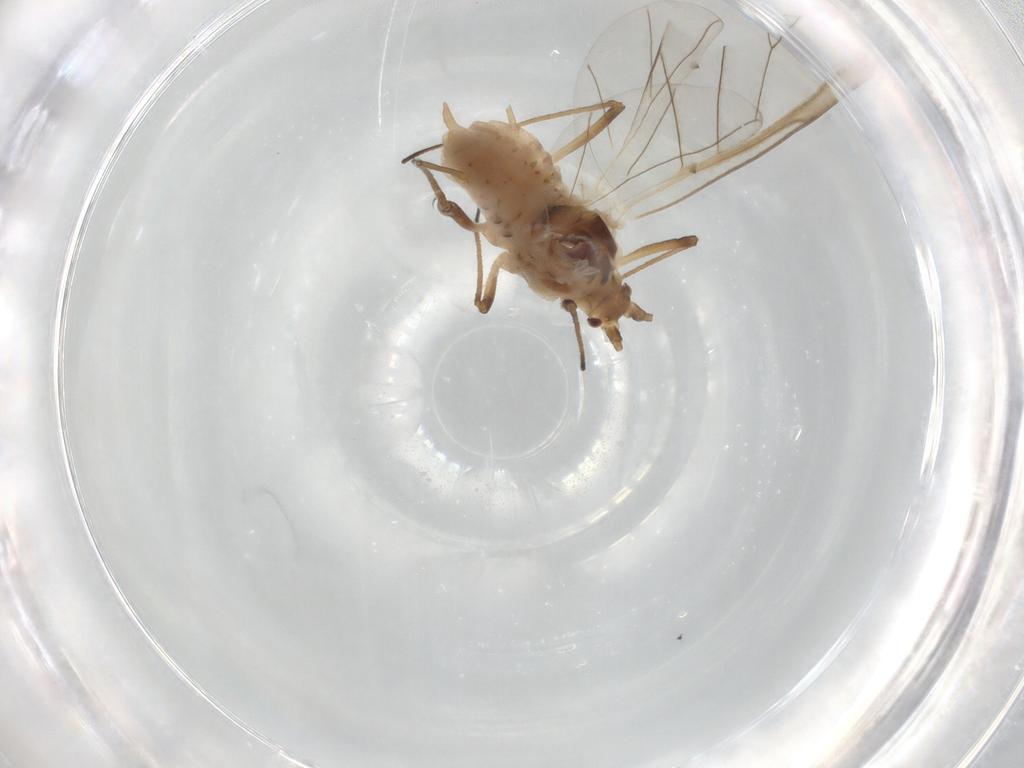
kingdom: Animalia
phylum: Arthropoda
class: Insecta
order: Hemiptera
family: Aphididae
